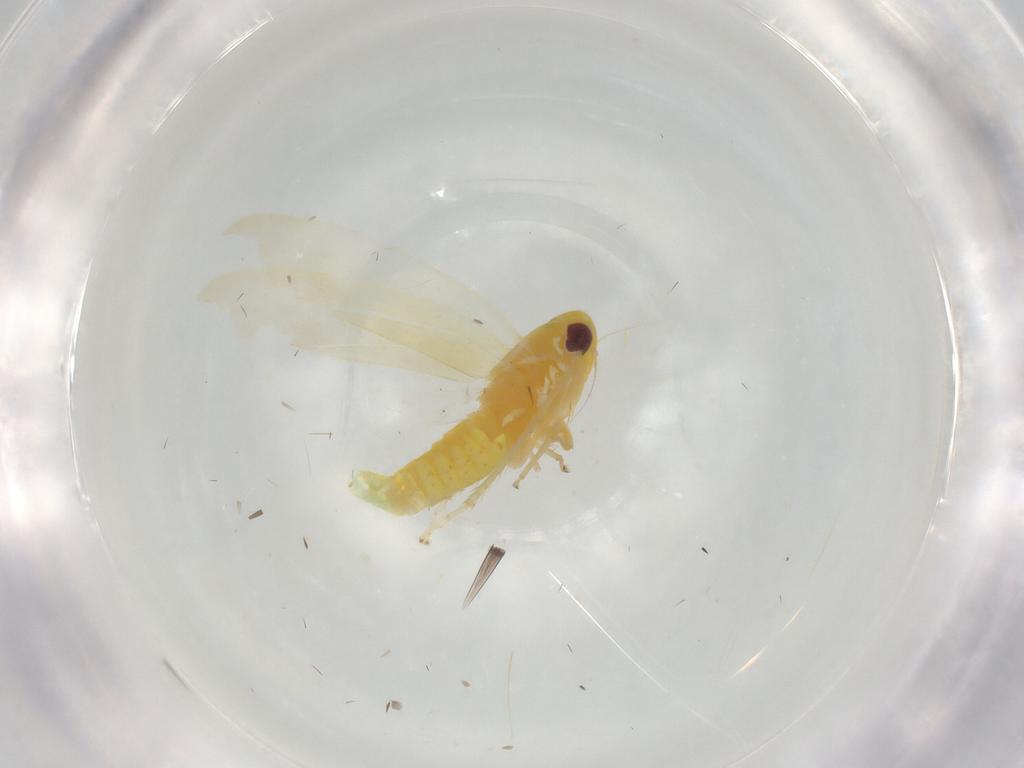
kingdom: Animalia
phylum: Arthropoda
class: Insecta
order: Hemiptera
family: Cicadellidae
